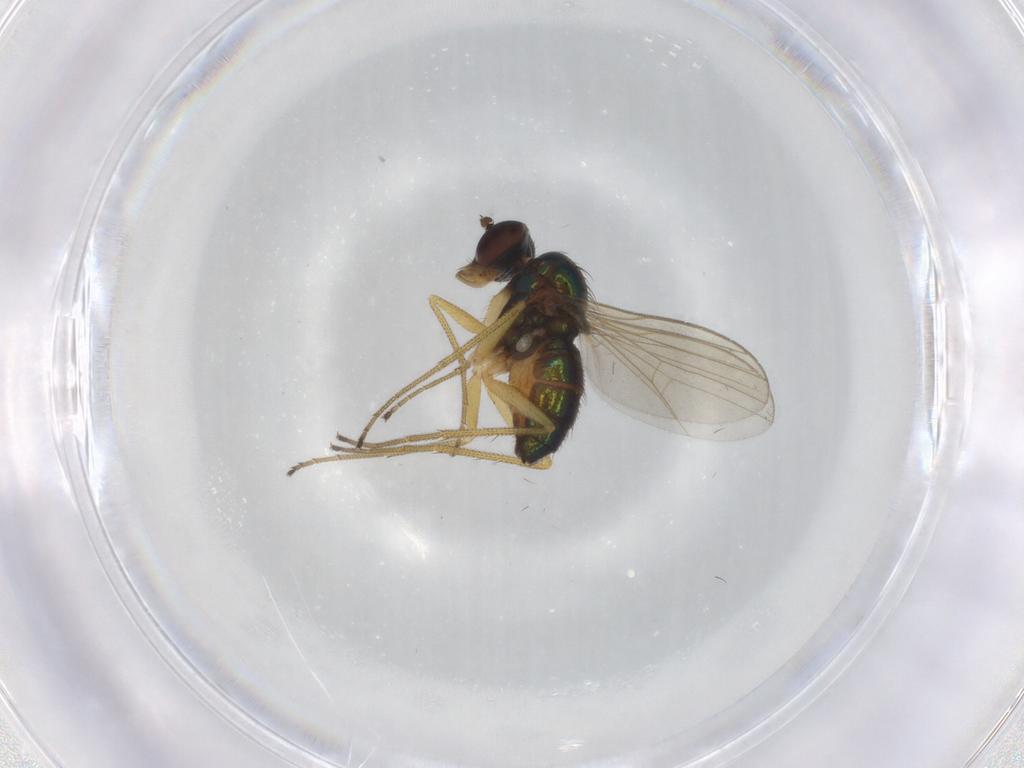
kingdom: Animalia
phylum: Arthropoda
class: Insecta
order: Diptera
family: Dolichopodidae
